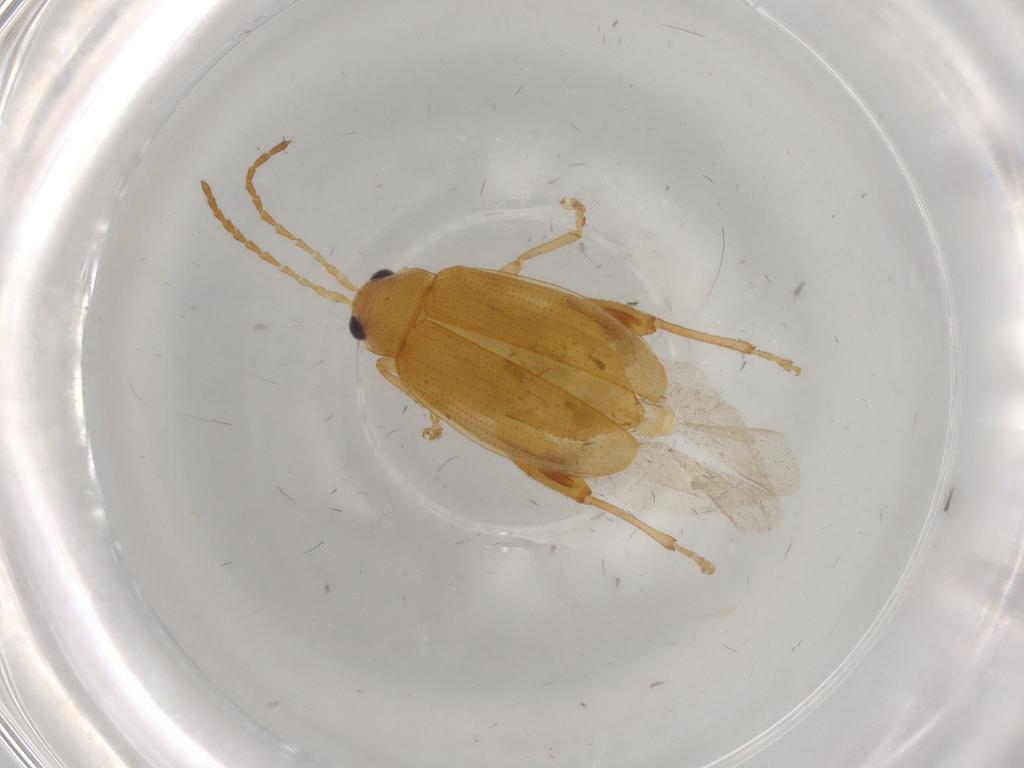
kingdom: Animalia
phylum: Arthropoda
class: Insecta
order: Coleoptera
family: Chrysomelidae
